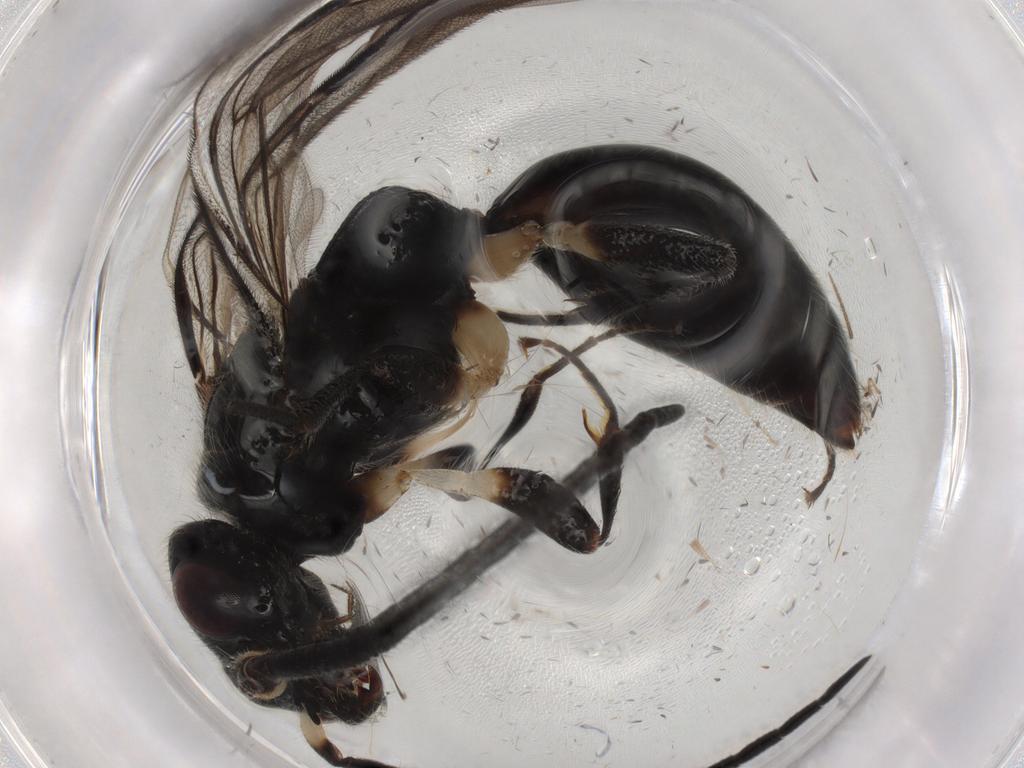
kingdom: Animalia
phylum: Arthropoda
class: Insecta
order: Hymenoptera
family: Bethylidae
